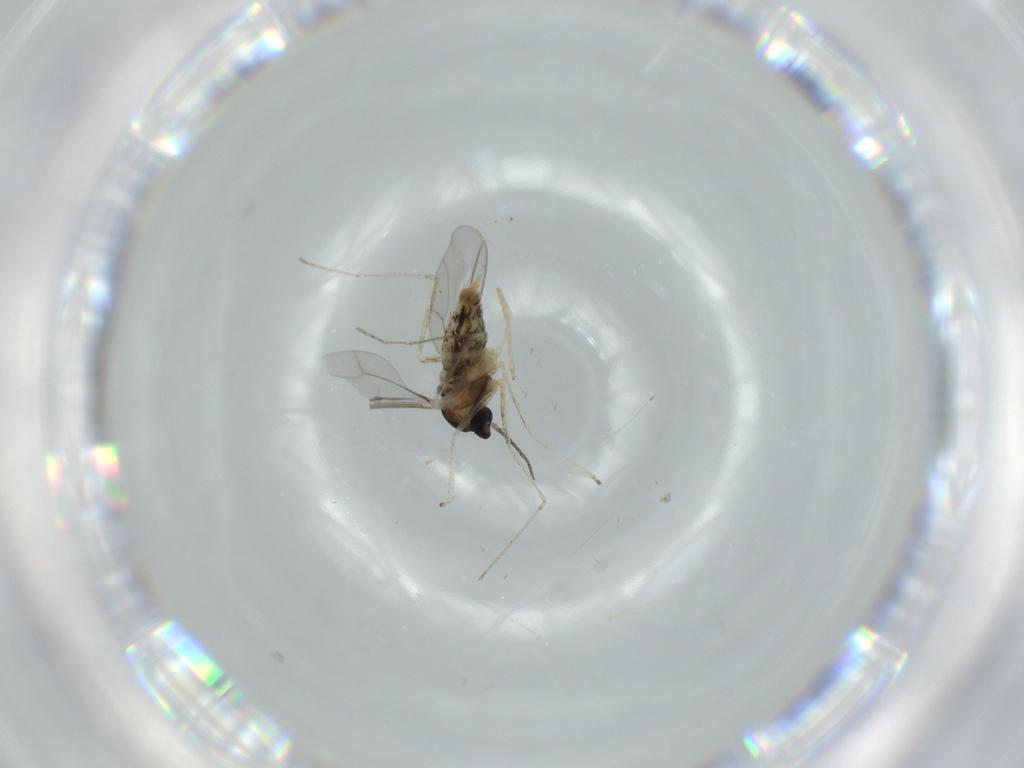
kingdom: Animalia
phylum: Arthropoda
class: Insecta
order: Diptera
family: Cecidomyiidae
